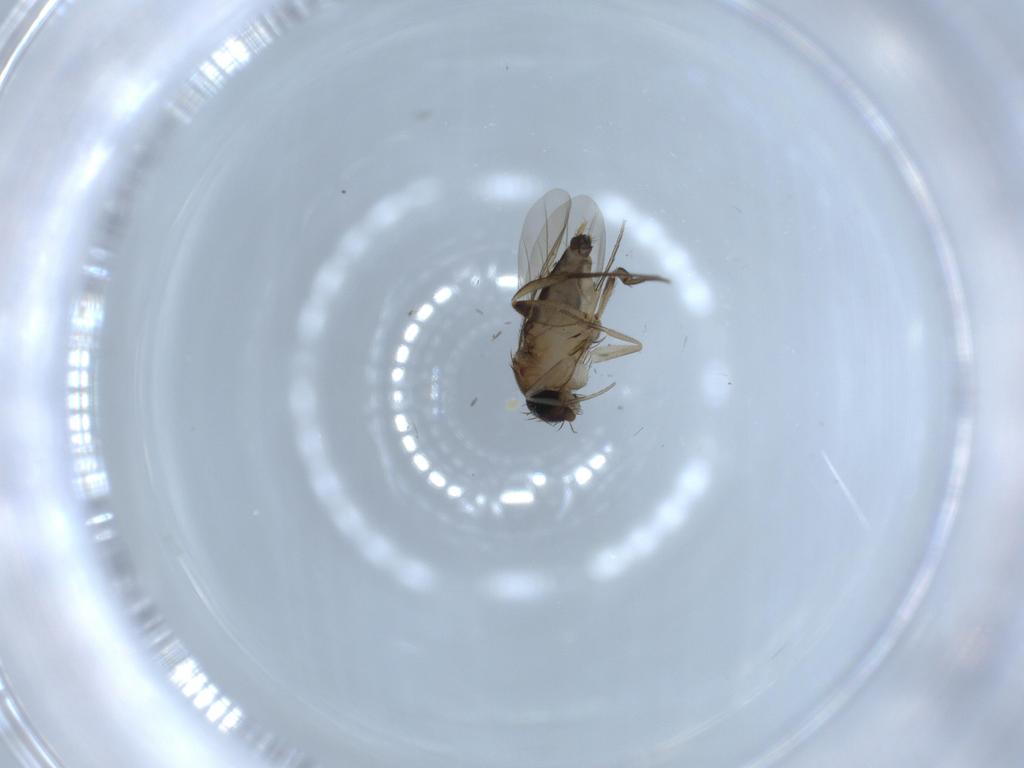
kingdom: Animalia
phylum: Arthropoda
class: Insecta
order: Diptera
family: Phoridae
